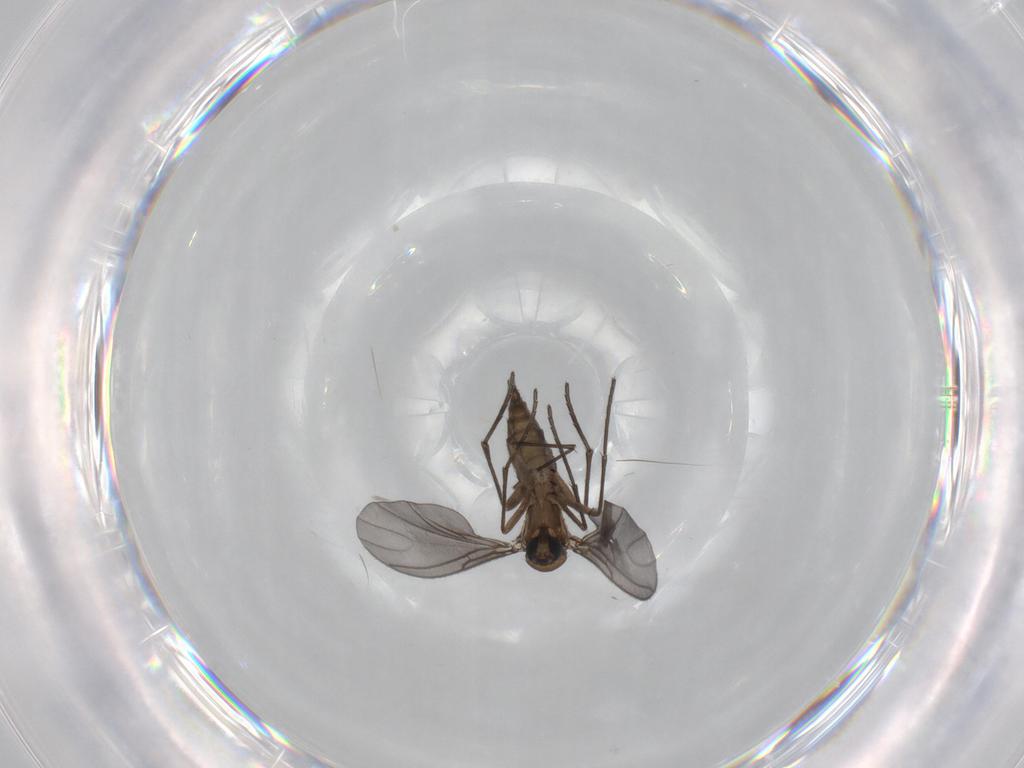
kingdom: Animalia
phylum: Arthropoda
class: Insecta
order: Diptera
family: Sciaridae
